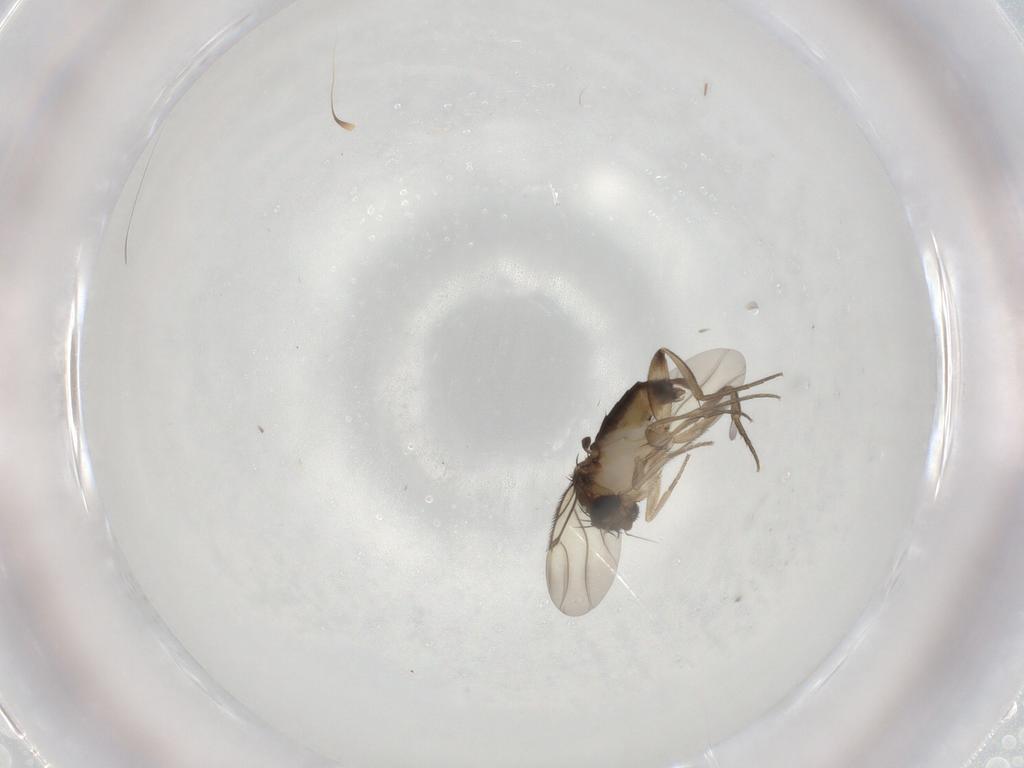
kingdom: Animalia
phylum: Arthropoda
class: Insecta
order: Diptera
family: Phoridae
